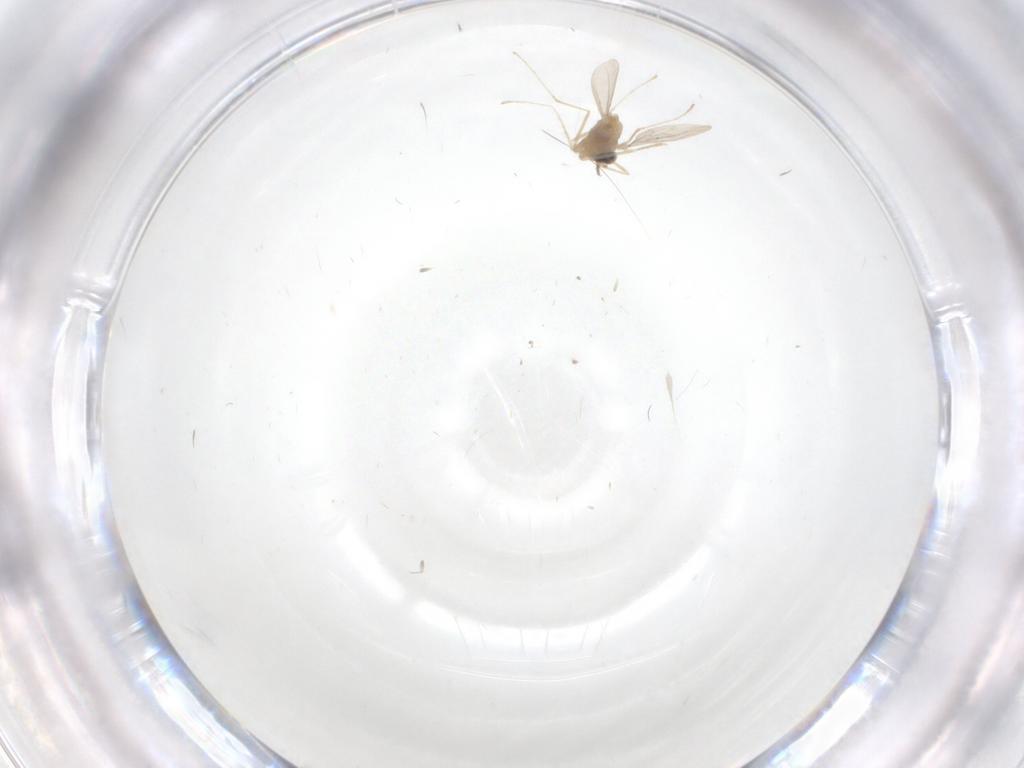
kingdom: Animalia
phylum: Arthropoda
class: Insecta
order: Diptera
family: Cecidomyiidae
